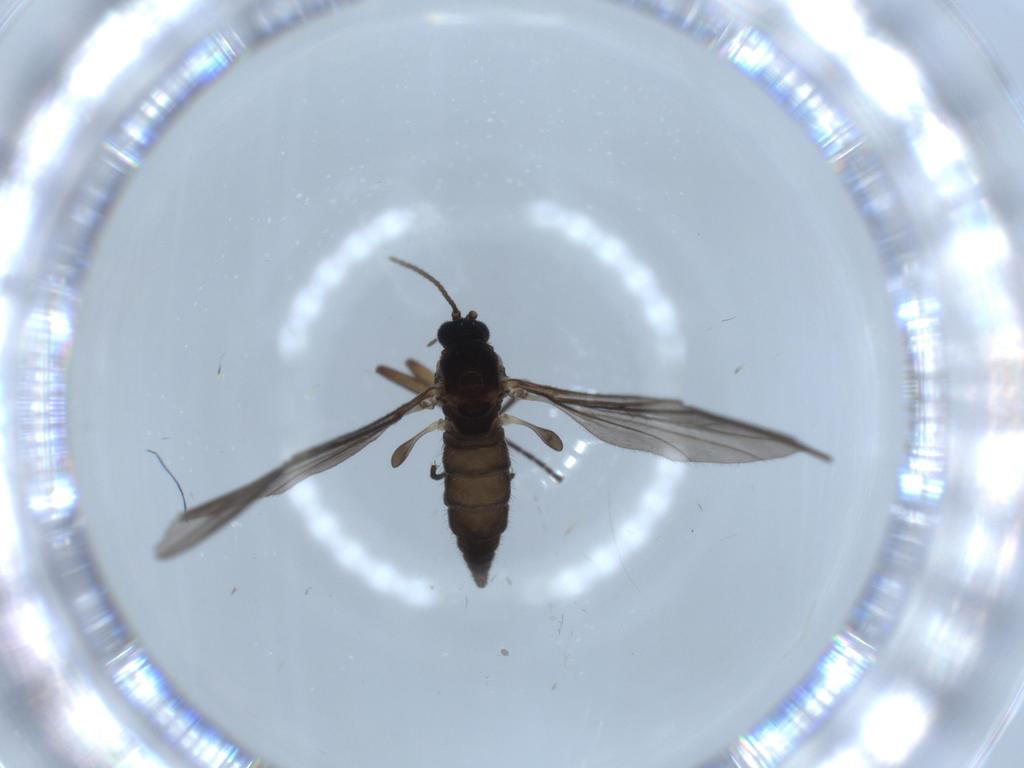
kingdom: Animalia
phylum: Arthropoda
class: Insecta
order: Diptera
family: Sciaridae
